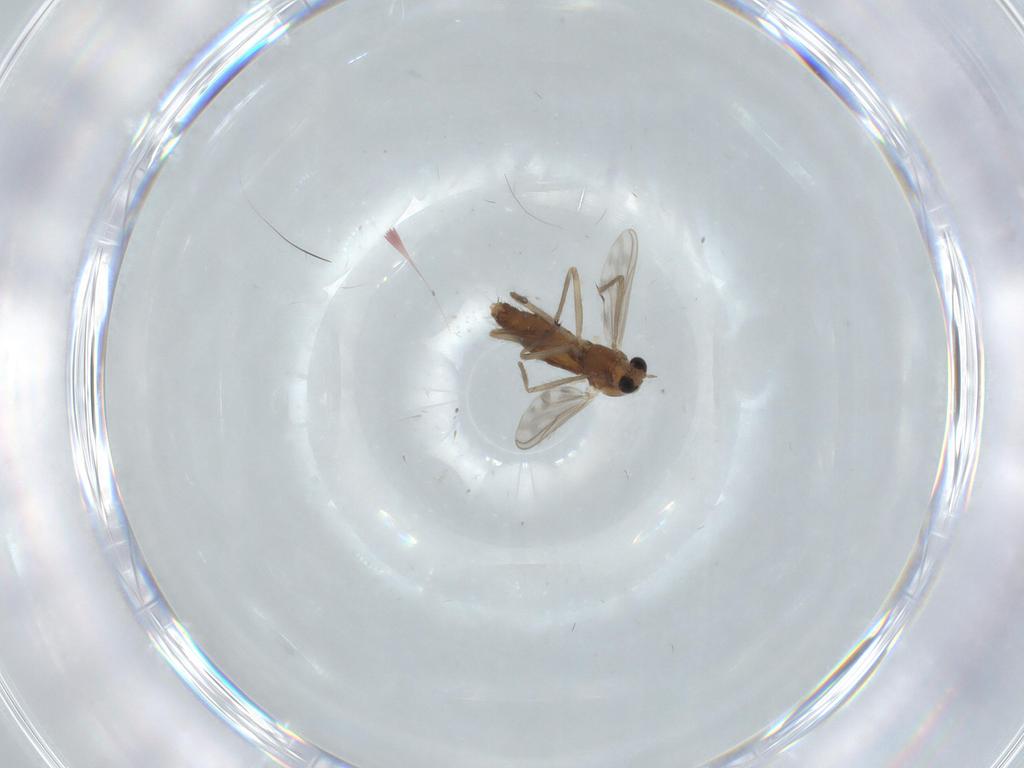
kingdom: Animalia
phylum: Arthropoda
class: Insecta
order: Diptera
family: Chironomidae
